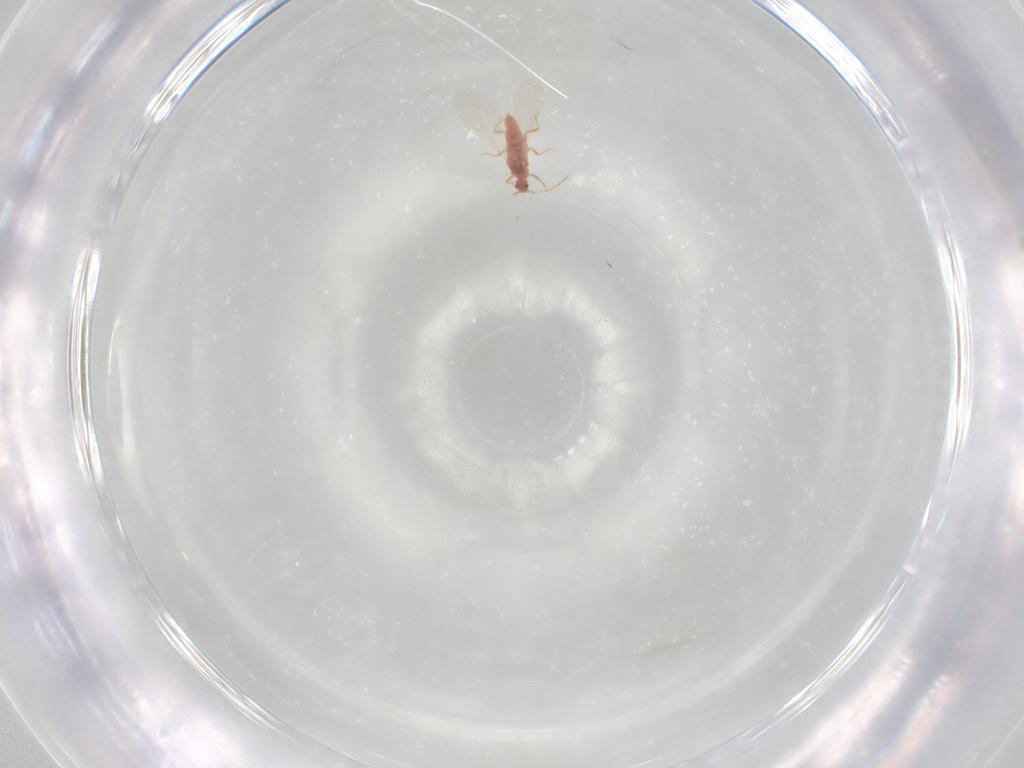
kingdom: Animalia
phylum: Arthropoda
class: Insecta
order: Hemiptera
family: Pseudococcidae
